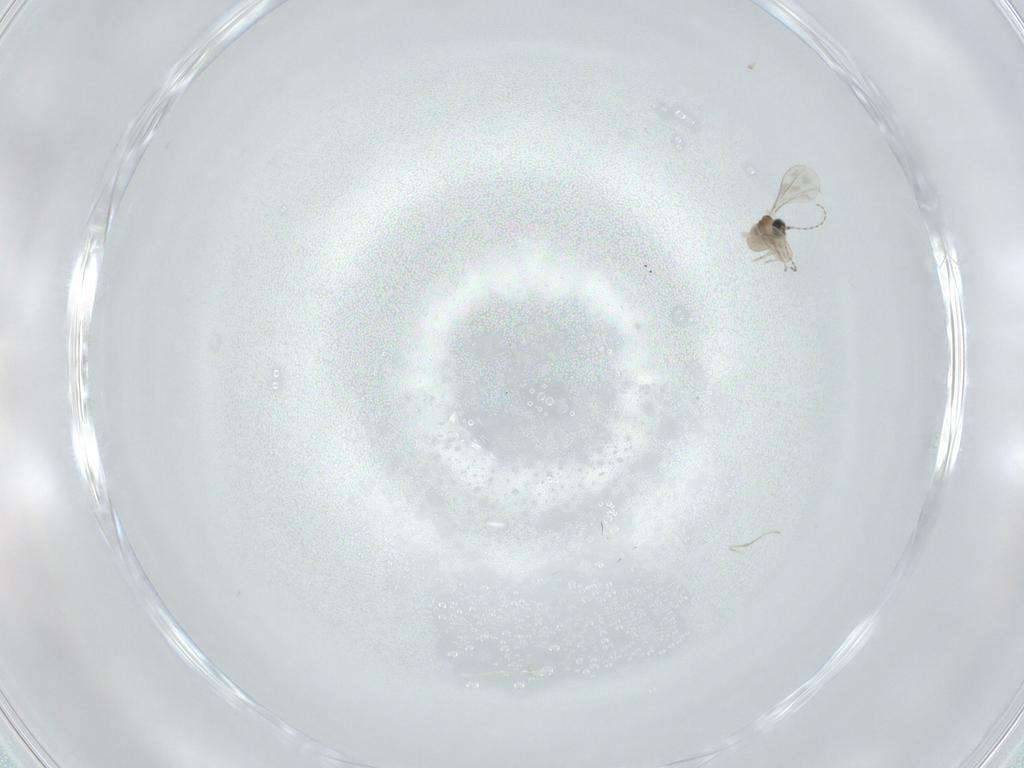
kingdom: Animalia
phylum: Arthropoda
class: Insecta
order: Diptera
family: Cecidomyiidae
